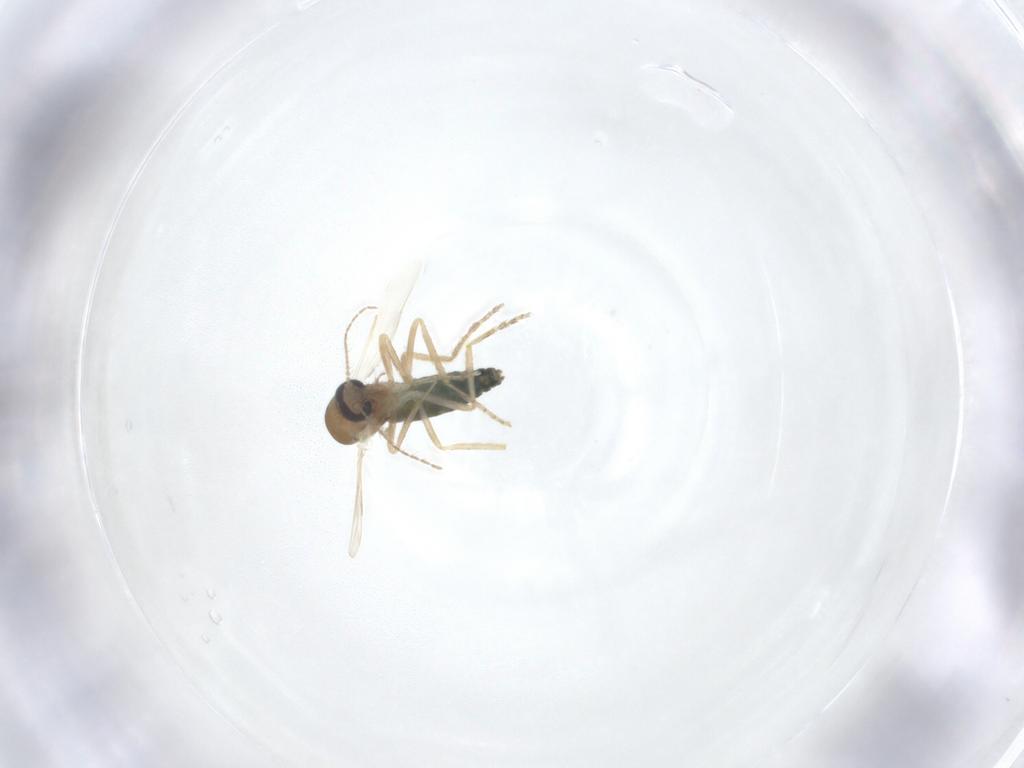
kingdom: Animalia
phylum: Arthropoda
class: Insecta
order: Diptera
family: Ceratopogonidae
